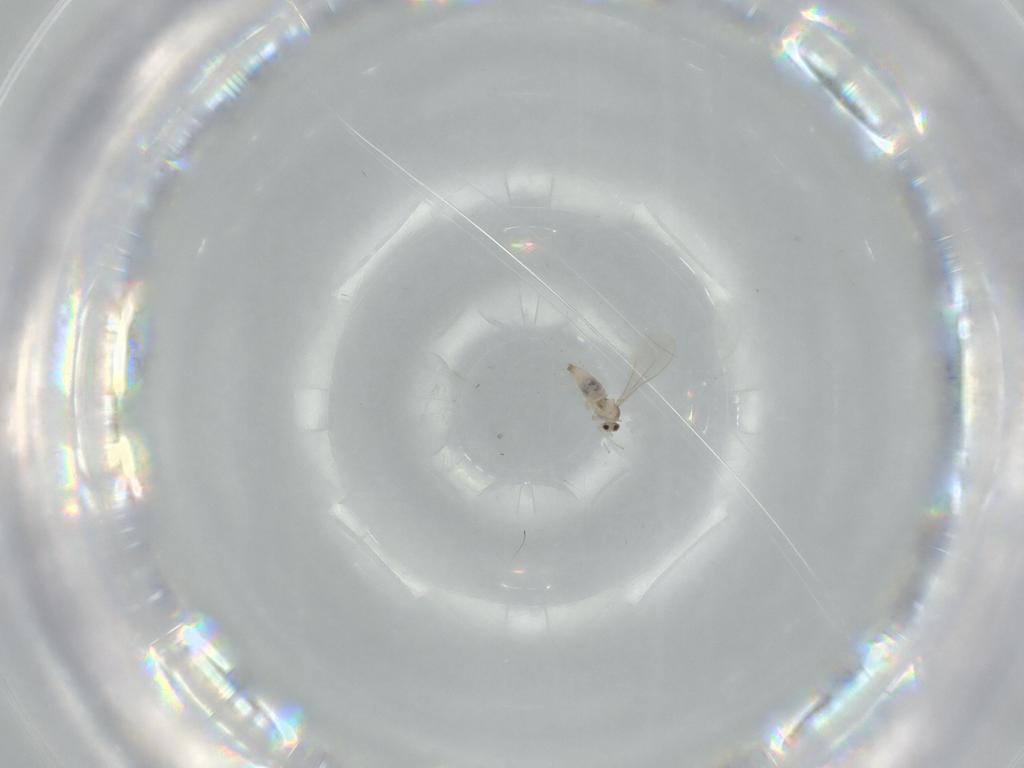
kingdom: Animalia
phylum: Arthropoda
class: Insecta
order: Diptera
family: Cecidomyiidae
